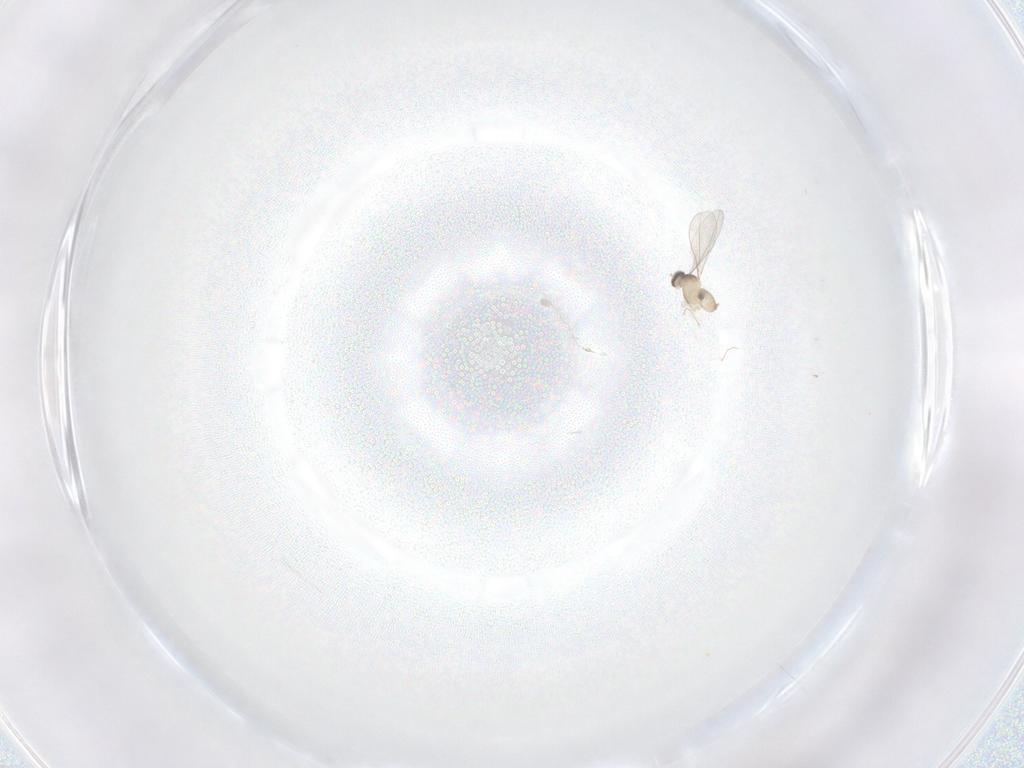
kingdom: Animalia
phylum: Arthropoda
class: Insecta
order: Diptera
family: Cecidomyiidae
